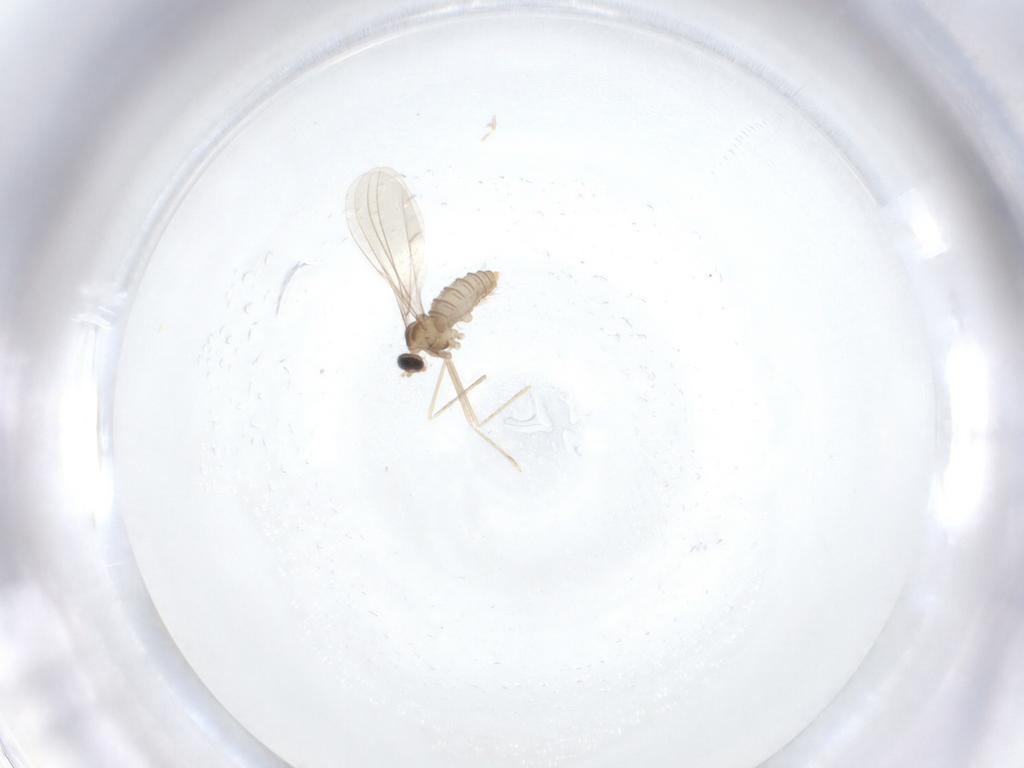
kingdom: Animalia
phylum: Arthropoda
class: Insecta
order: Diptera
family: Cecidomyiidae
